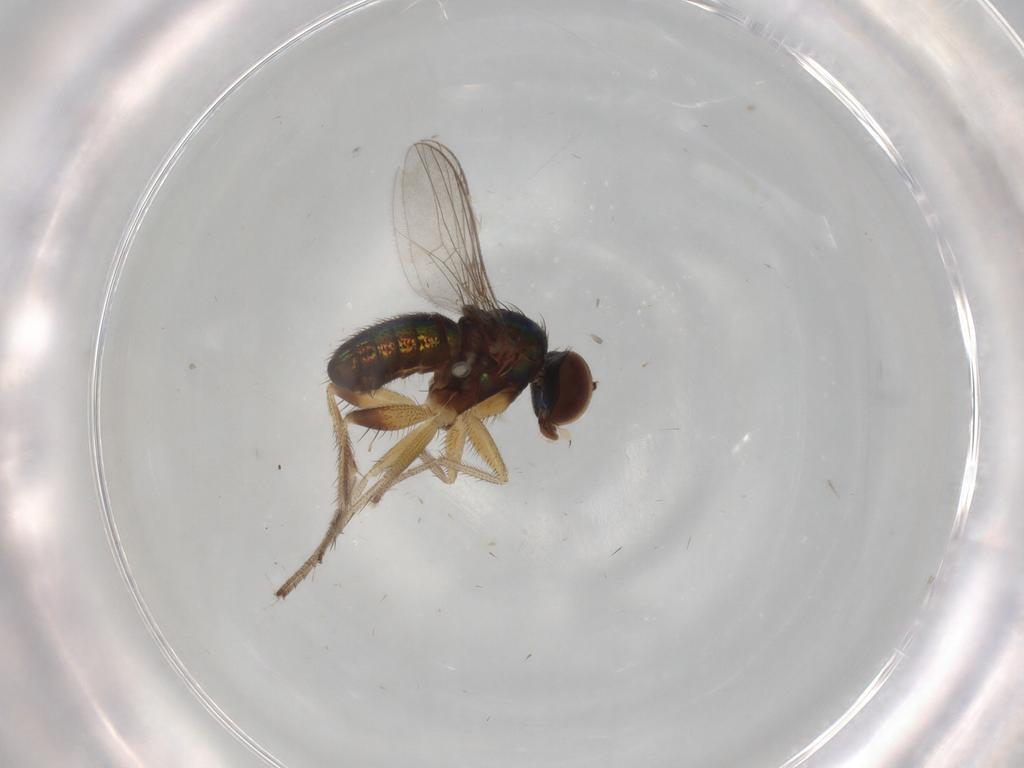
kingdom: Animalia
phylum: Arthropoda
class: Insecta
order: Diptera
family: Sciaridae
